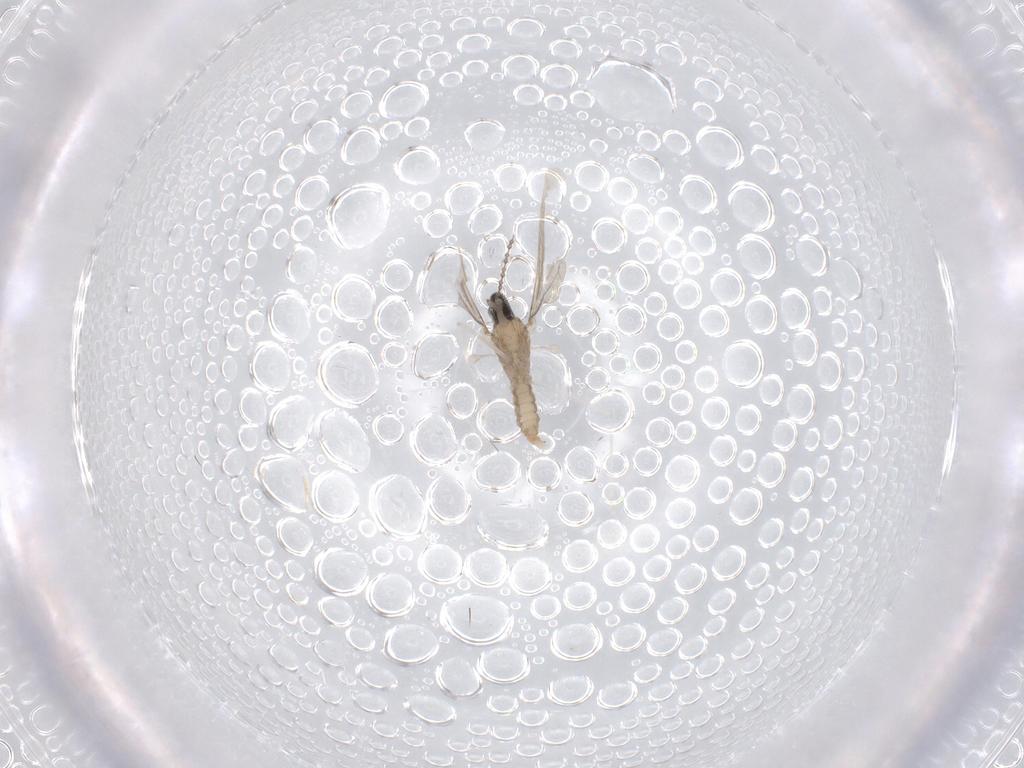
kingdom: Animalia
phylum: Arthropoda
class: Insecta
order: Diptera
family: Cecidomyiidae
